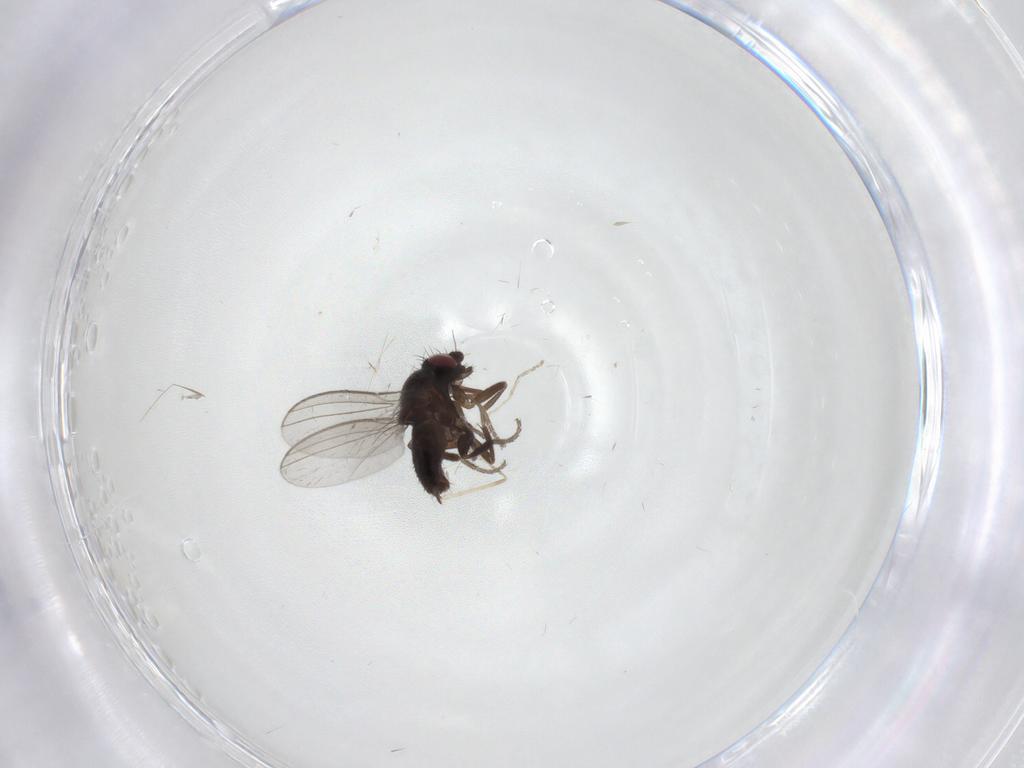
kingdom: Animalia
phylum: Arthropoda
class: Insecta
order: Diptera
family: Milichiidae
